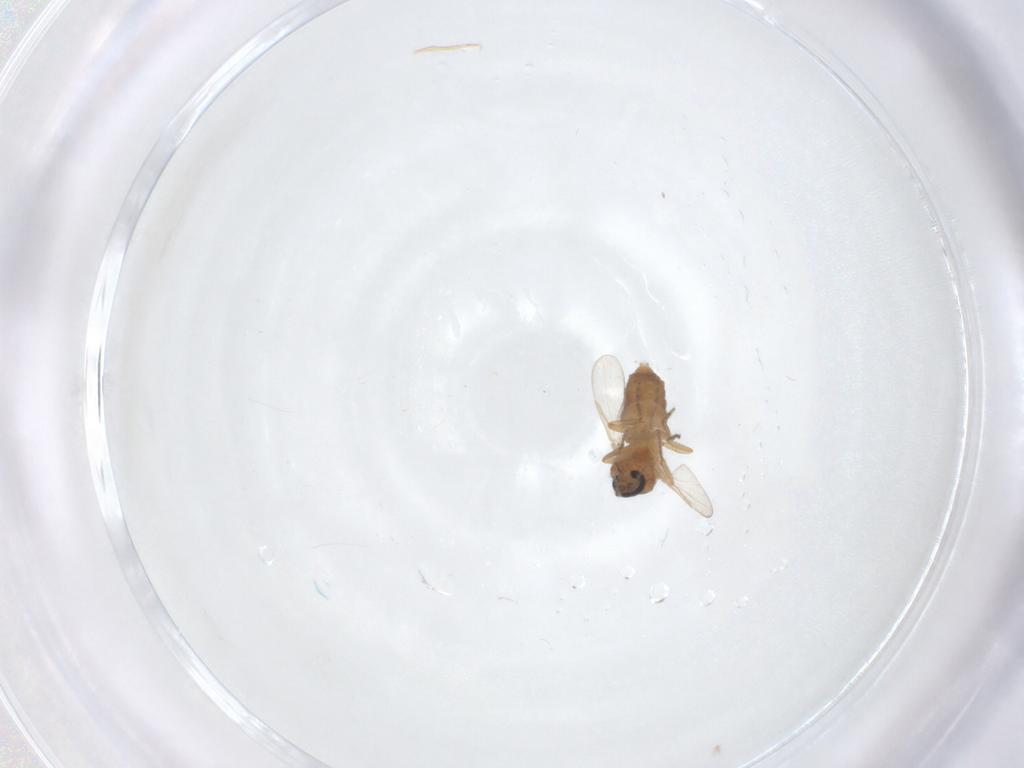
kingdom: Animalia
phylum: Arthropoda
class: Insecta
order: Diptera
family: Ceratopogonidae
